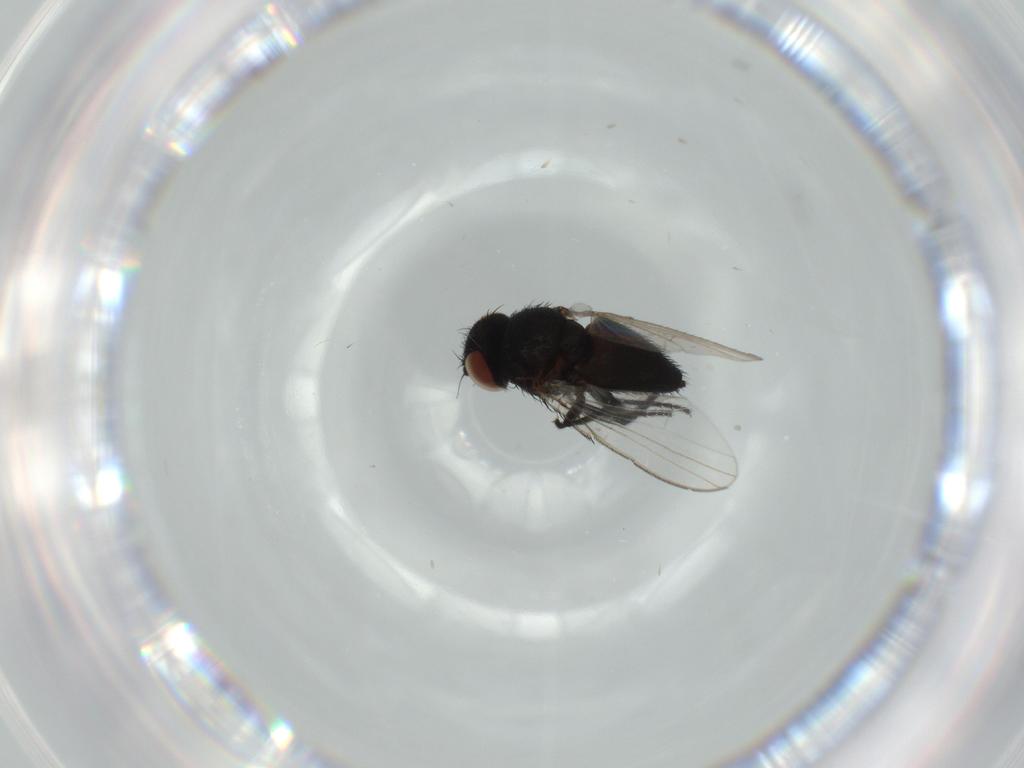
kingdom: Animalia
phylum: Arthropoda
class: Insecta
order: Diptera
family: Milichiidae
